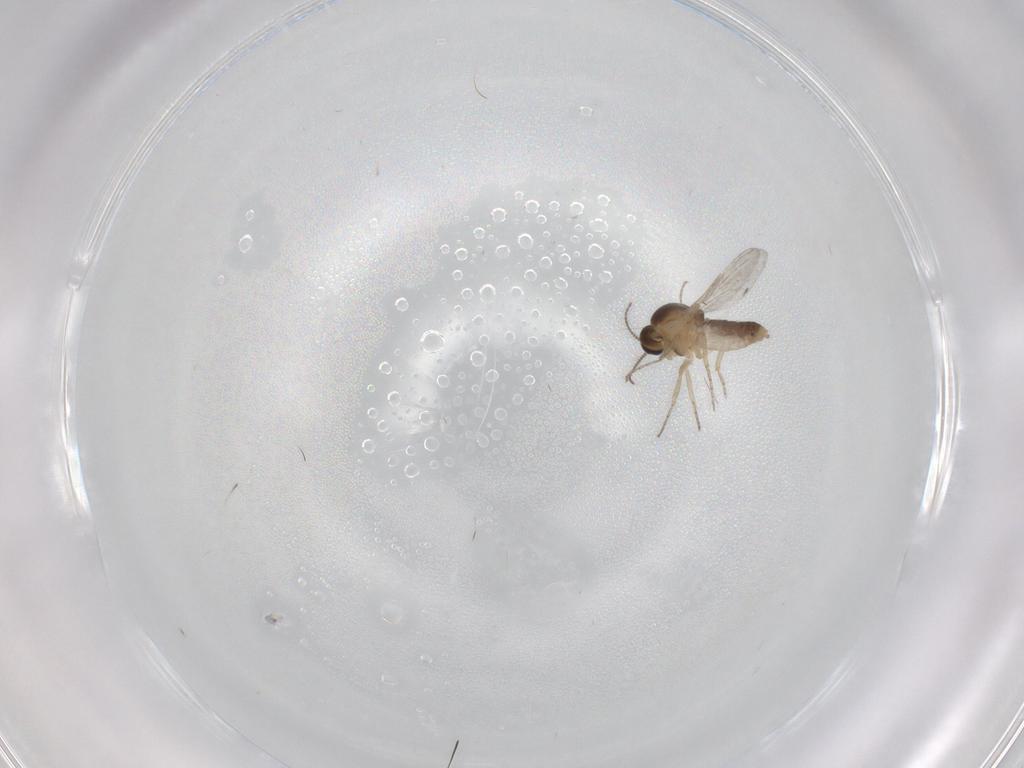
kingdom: Animalia
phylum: Arthropoda
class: Insecta
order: Diptera
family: Ceratopogonidae
